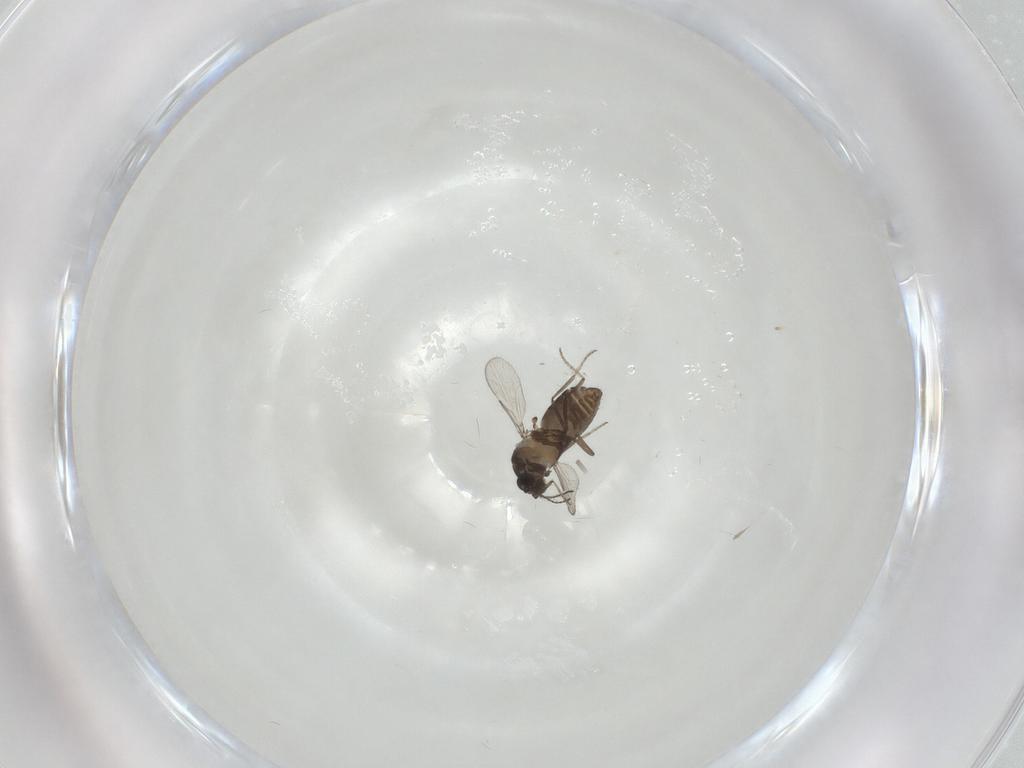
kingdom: Animalia
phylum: Arthropoda
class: Insecta
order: Diptera
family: Ceratopogonidae
